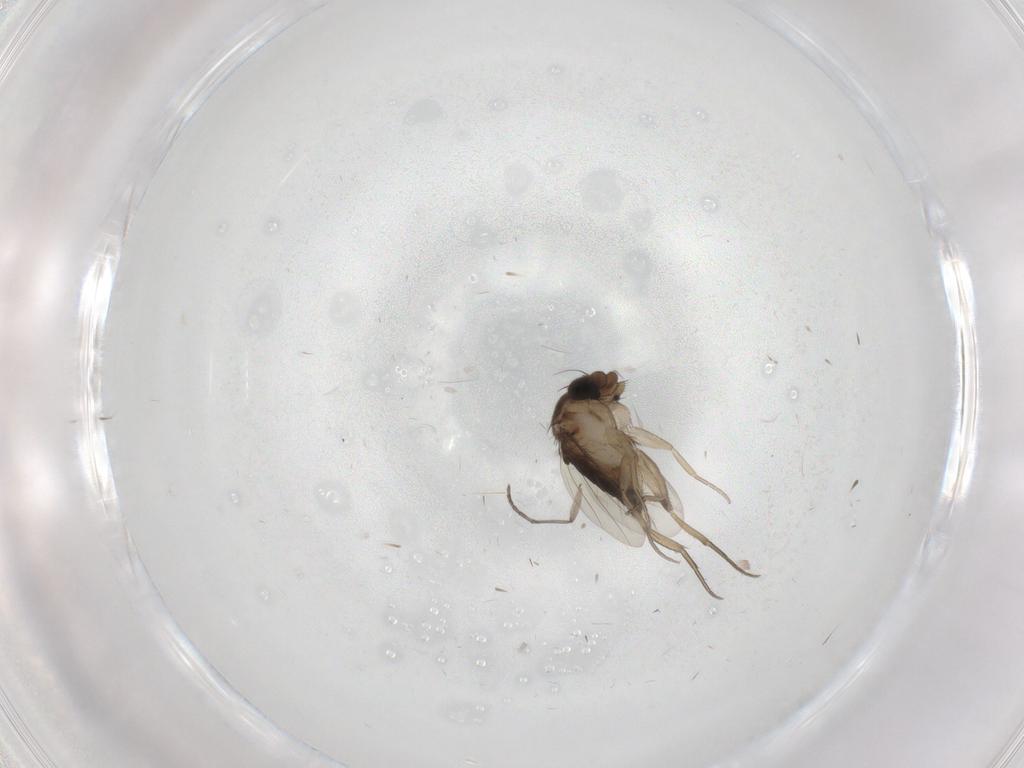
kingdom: Animalia
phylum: Arthropoda
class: Insecta
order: Diptera
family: Phoridae
